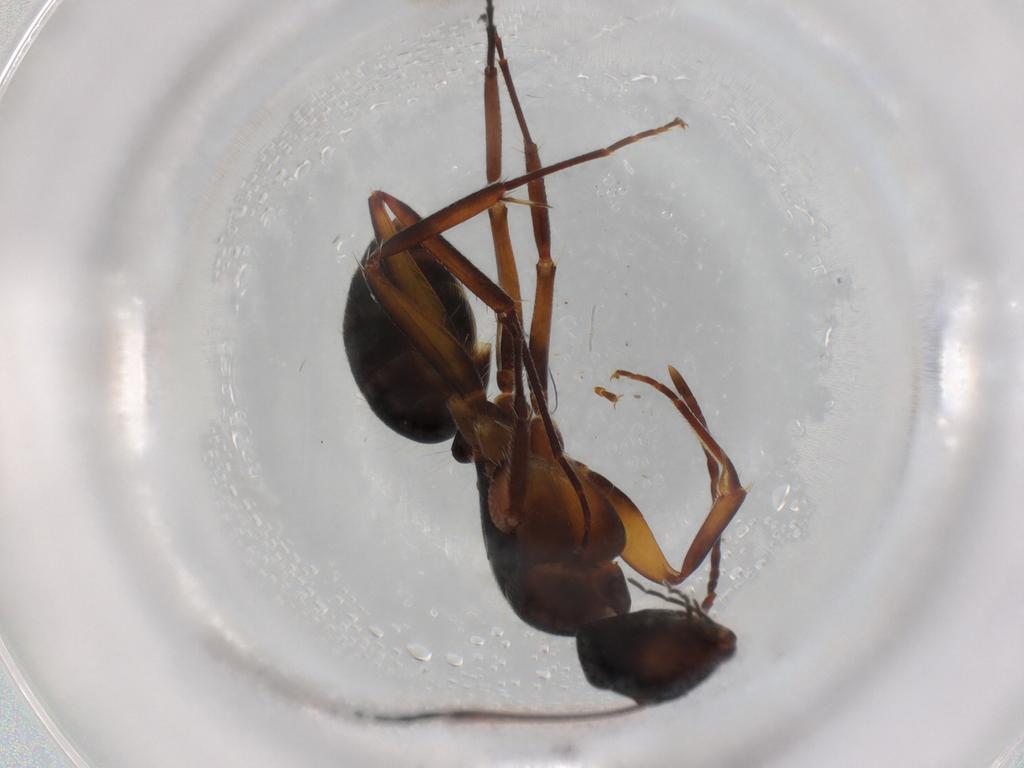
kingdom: Animalia
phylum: Arthropoda
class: Insecta
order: Hymenoptera
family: Formicidae
